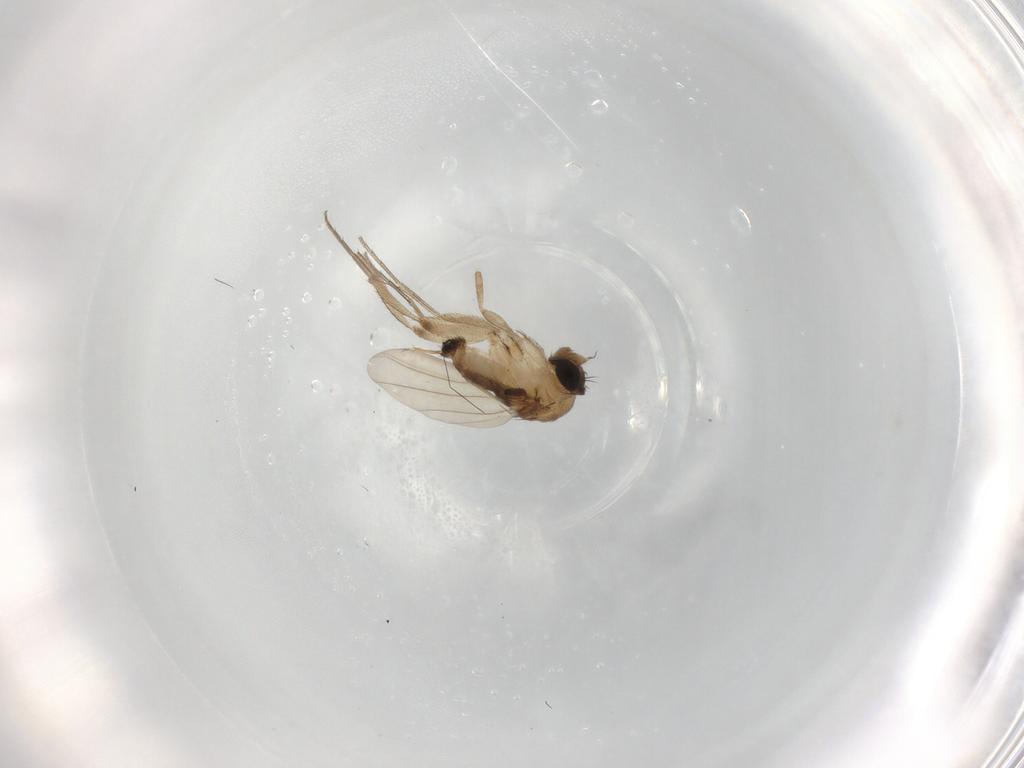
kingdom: Animalia
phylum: Arthropoda
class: Insecta
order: Diptera
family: Phoridae
